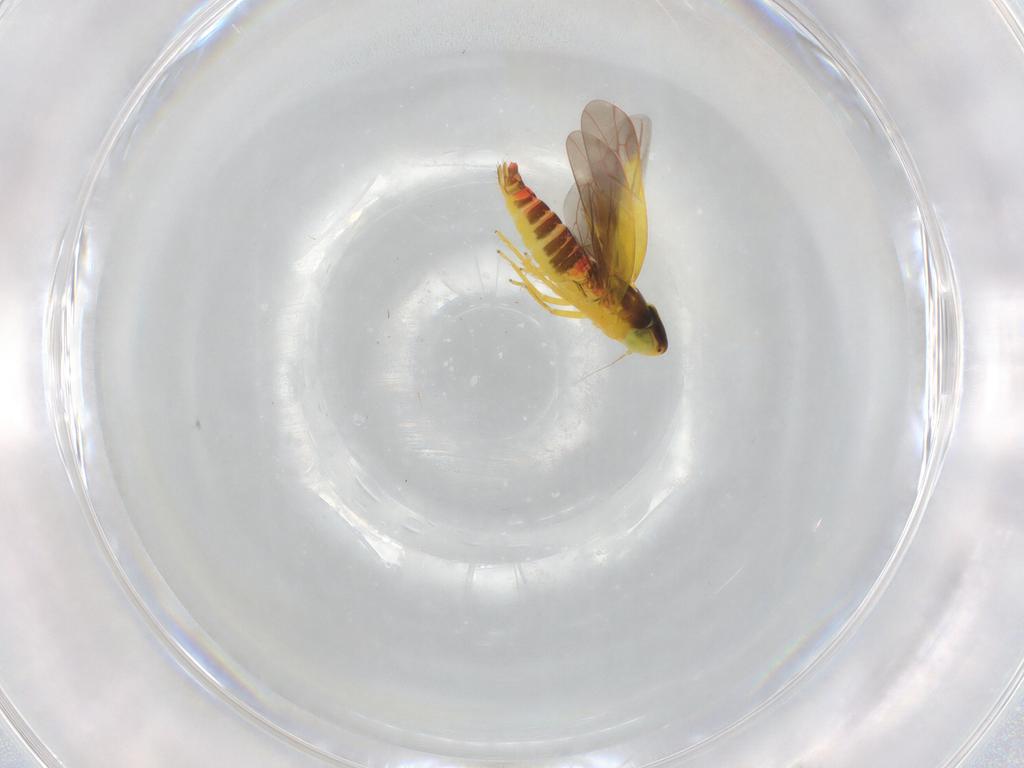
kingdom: Animalia
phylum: Arthropoda
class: Insecta
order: Hemiptera
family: Cicadellidae
